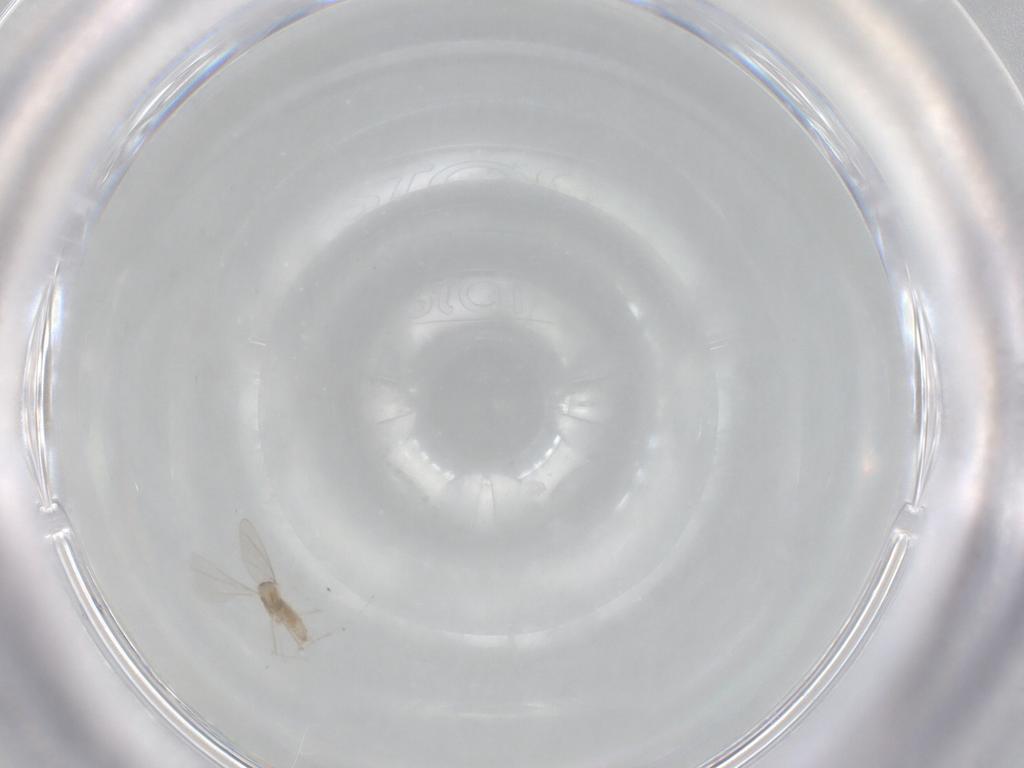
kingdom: Animalia
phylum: Arthropoda
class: Insecta
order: Diptera
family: Cecidomyiidae
